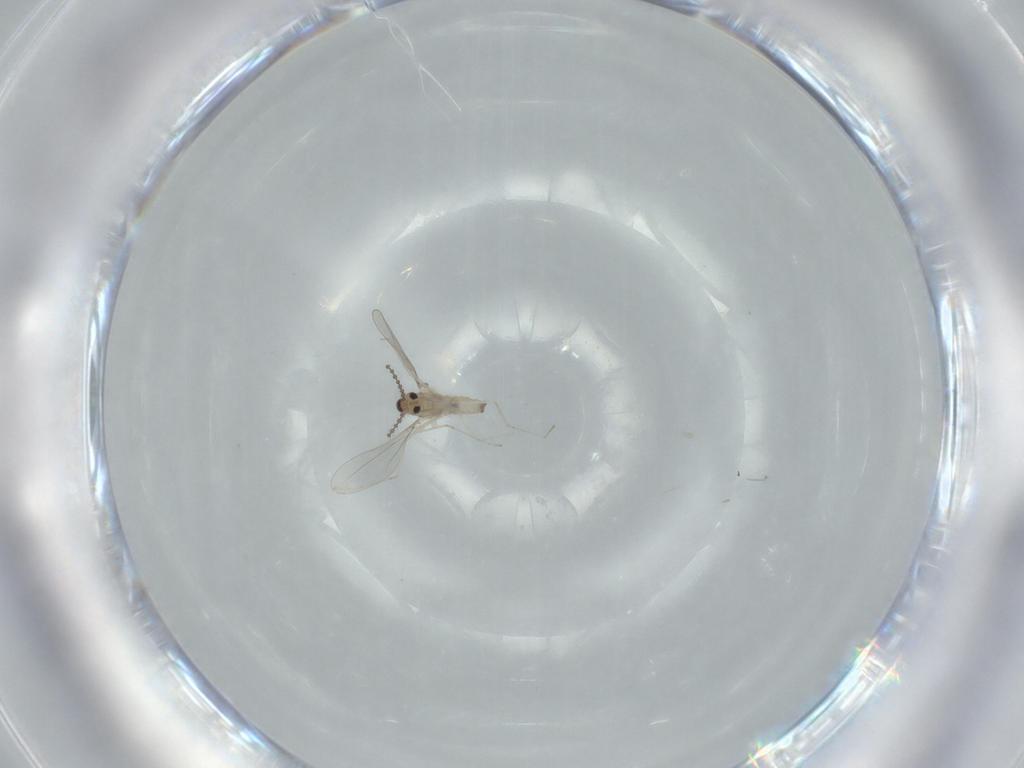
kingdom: Animalia
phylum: Arthropoda
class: Insecta
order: Diptera
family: Cecidomyiidae
